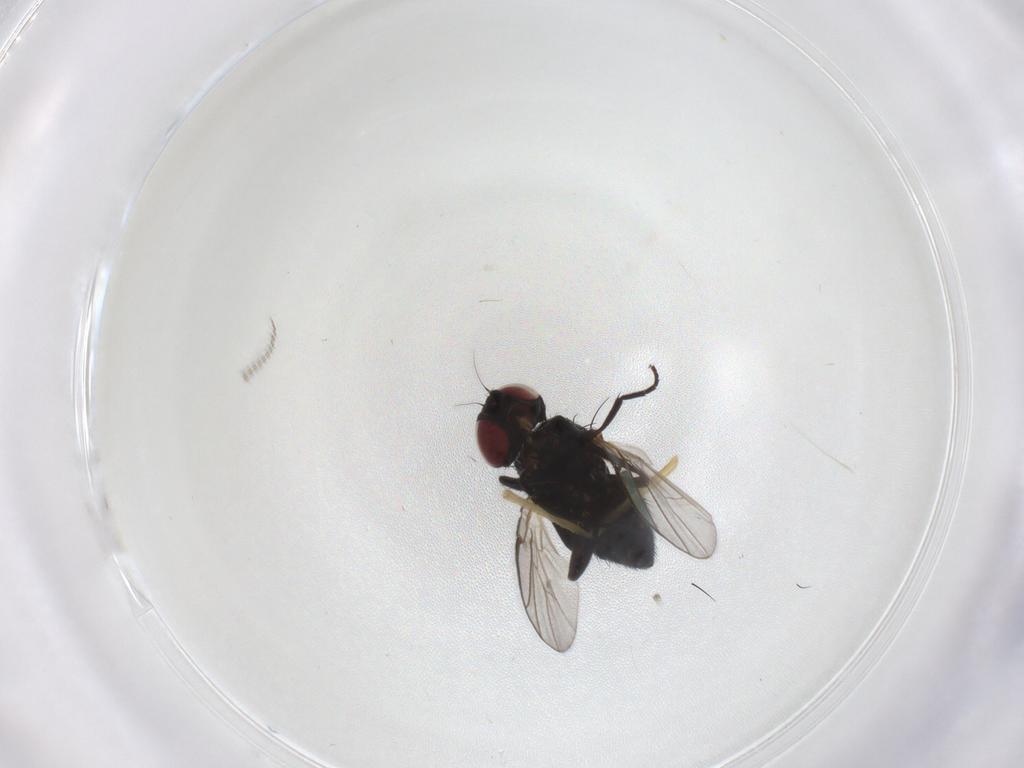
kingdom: Animalia
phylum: Arthropoda
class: Insecta
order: Diptera
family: Agromyzidae
